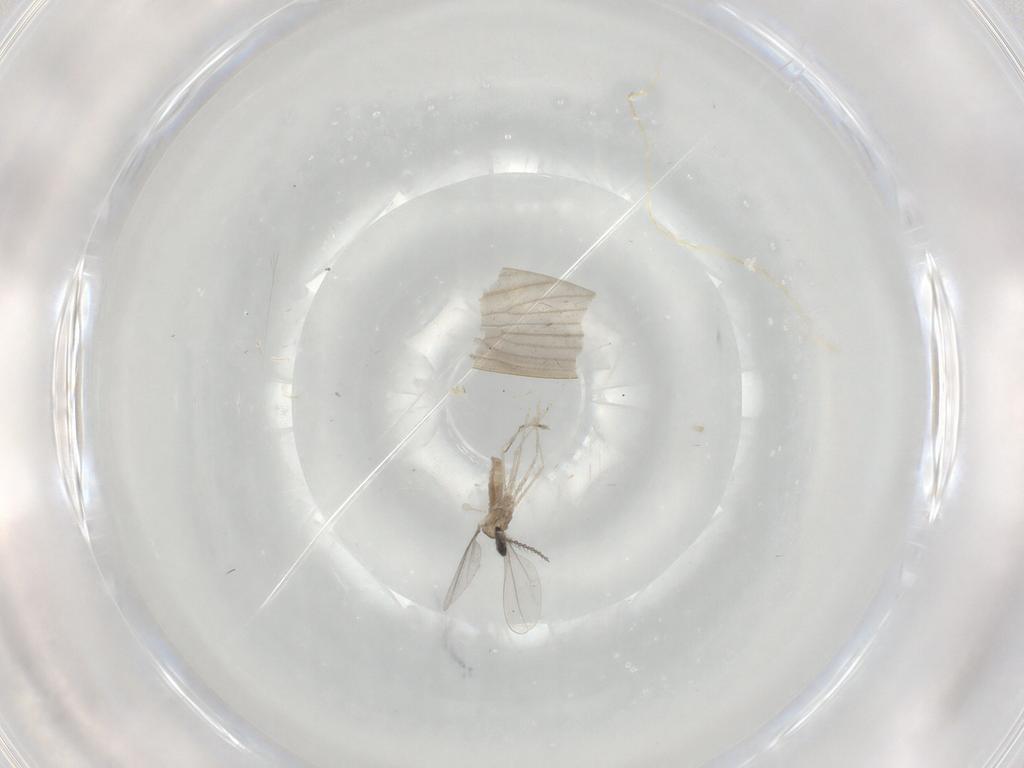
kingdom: Animalia
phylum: Arthropoda
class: Insecta
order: Diptera
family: Cecidomyiidae
